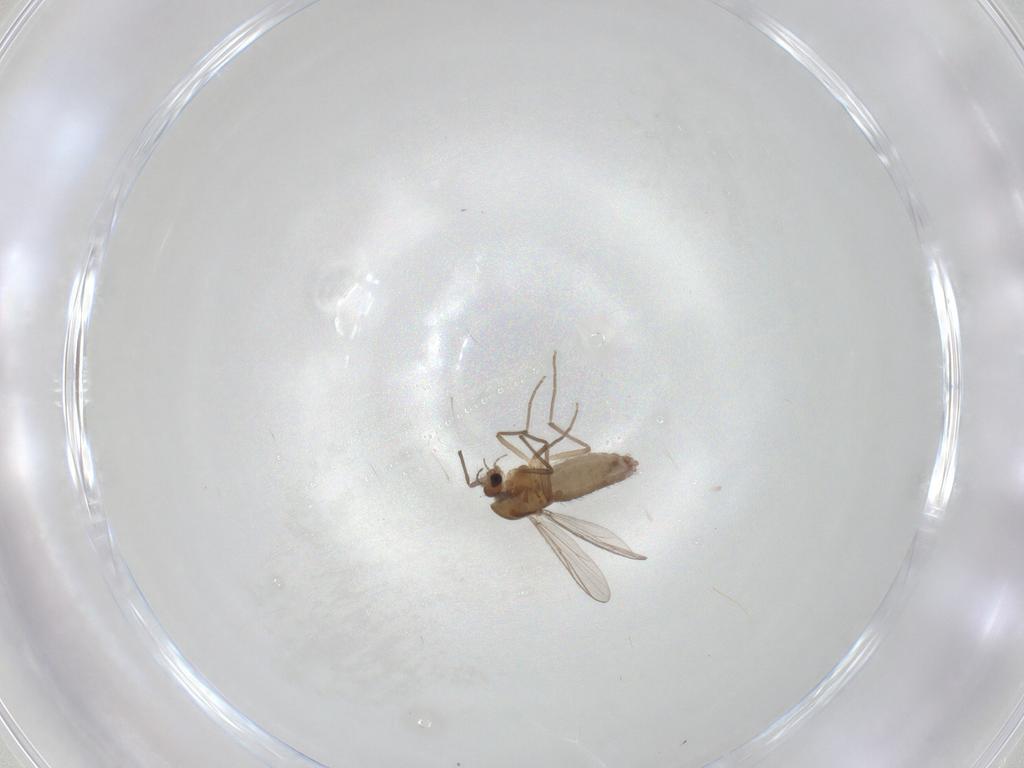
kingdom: Animalia
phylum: Arthropoda
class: Insecta
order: Diptera
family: Chironomidae
